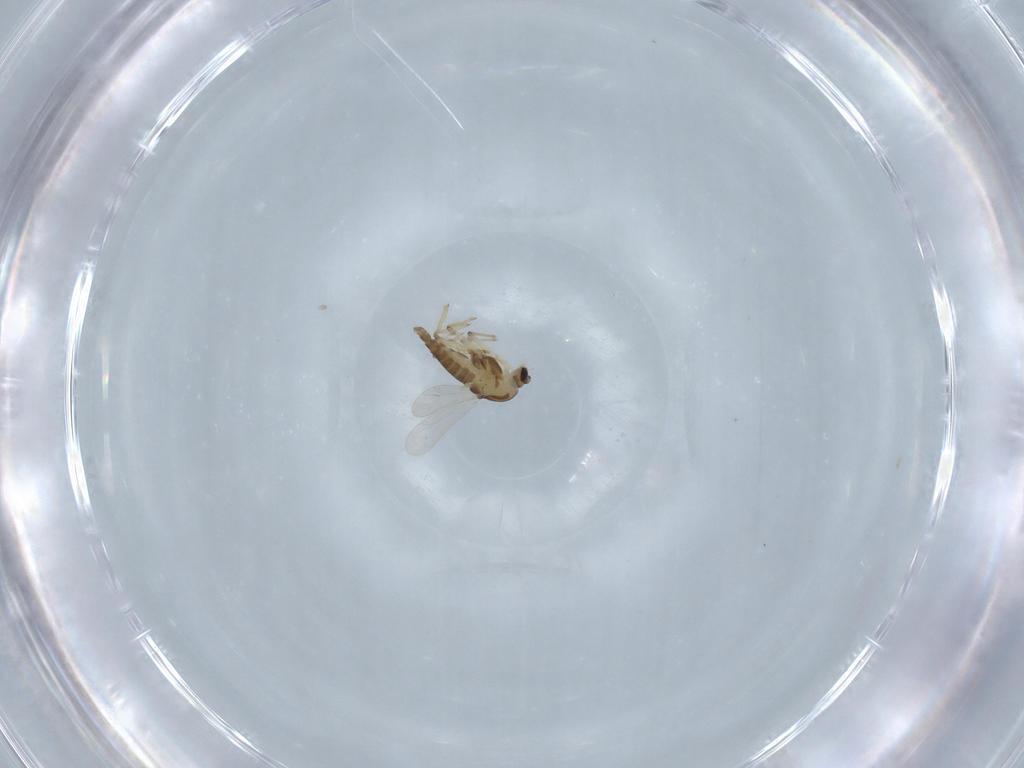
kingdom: Animalia
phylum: Arthropoda
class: Insecta
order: Diptera
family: Chironomidae
